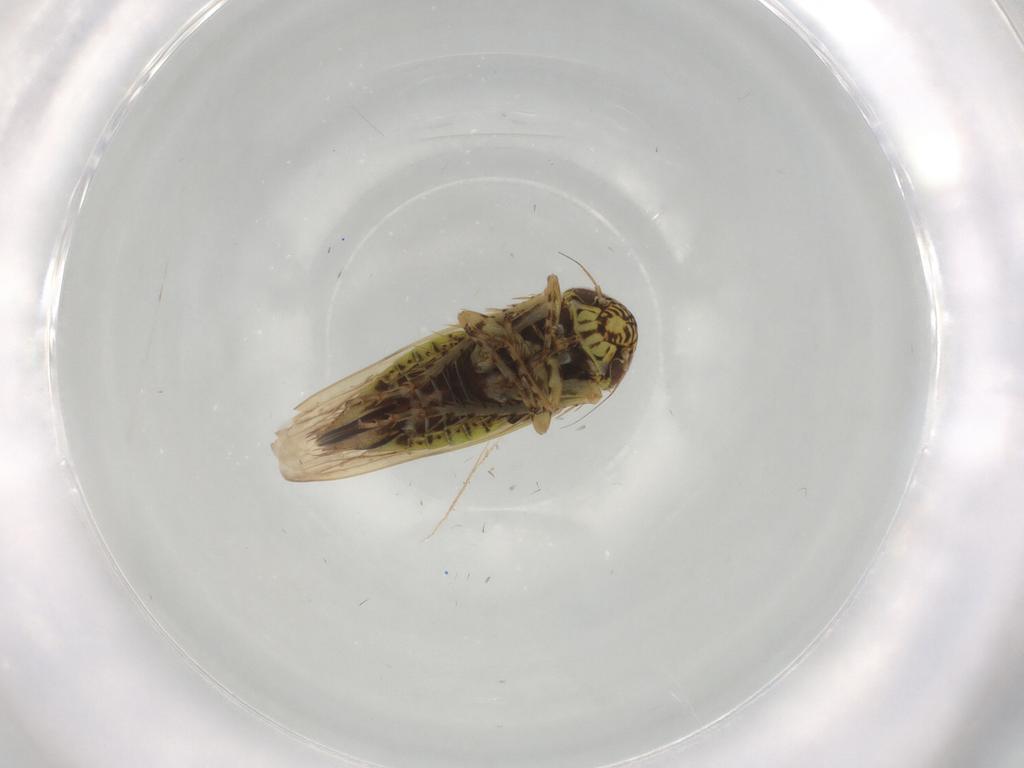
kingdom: Animalia
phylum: Arthropoda
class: Insecta
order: Hemiptera
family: Cicadellidae
